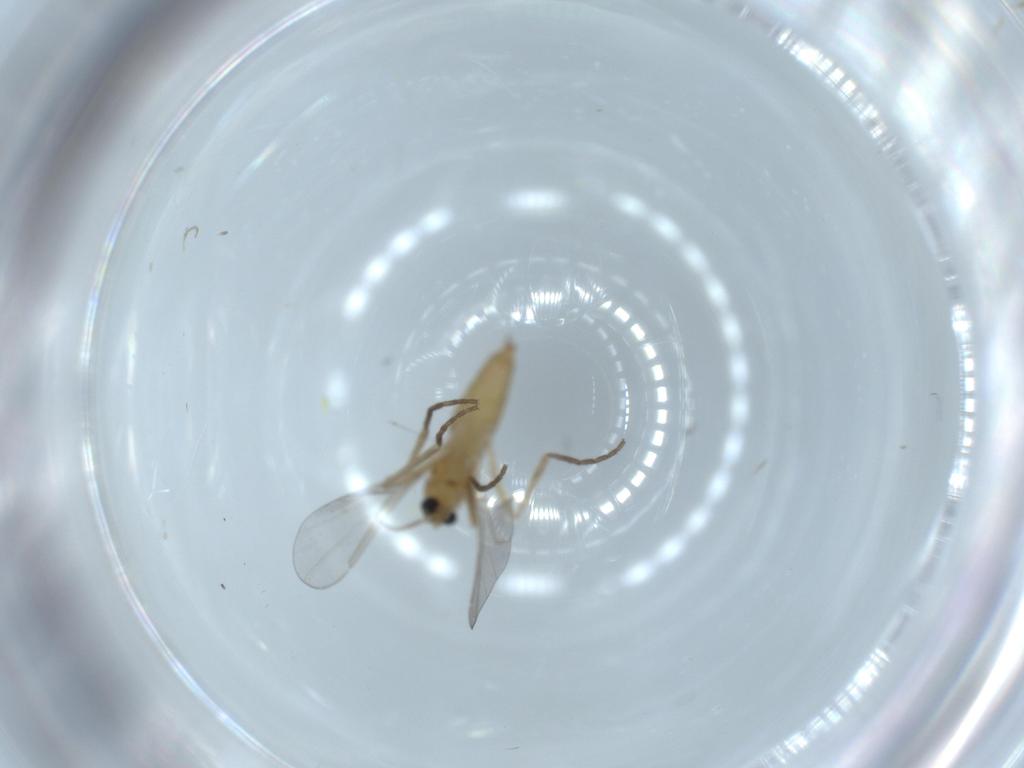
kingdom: Animalia
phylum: Arthropoda
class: Insecta
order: Diptera
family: Cecidomyiidae
